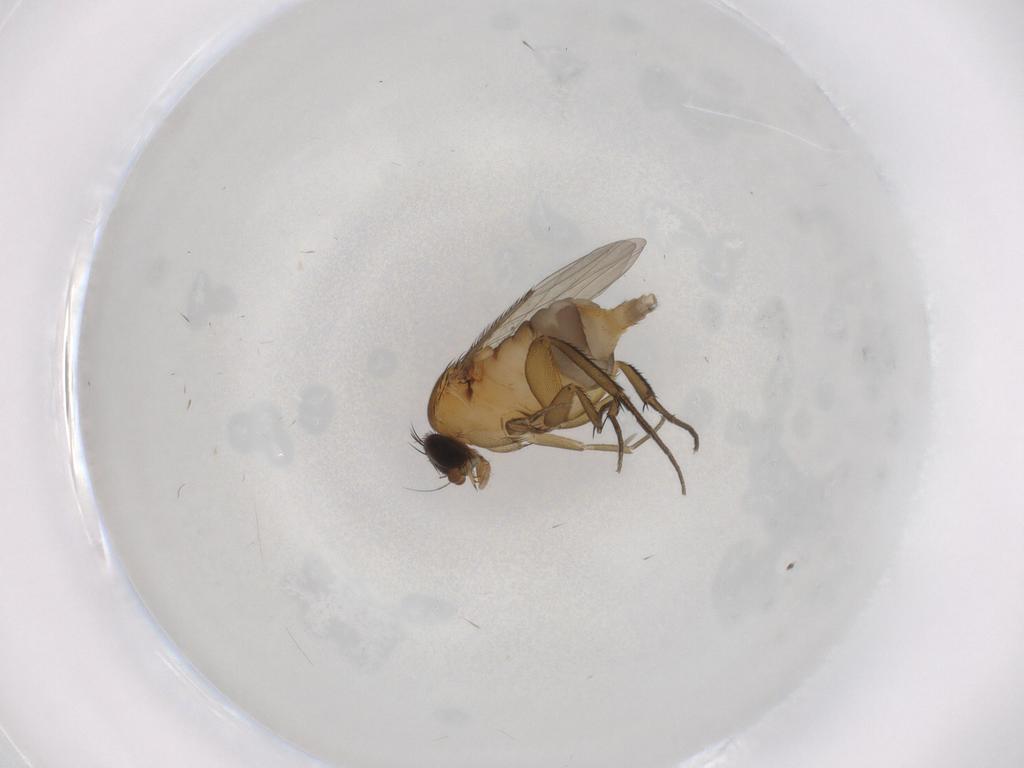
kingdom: Animalia
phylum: Arthropoda
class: Insecta
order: Diptera
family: Phoridae
